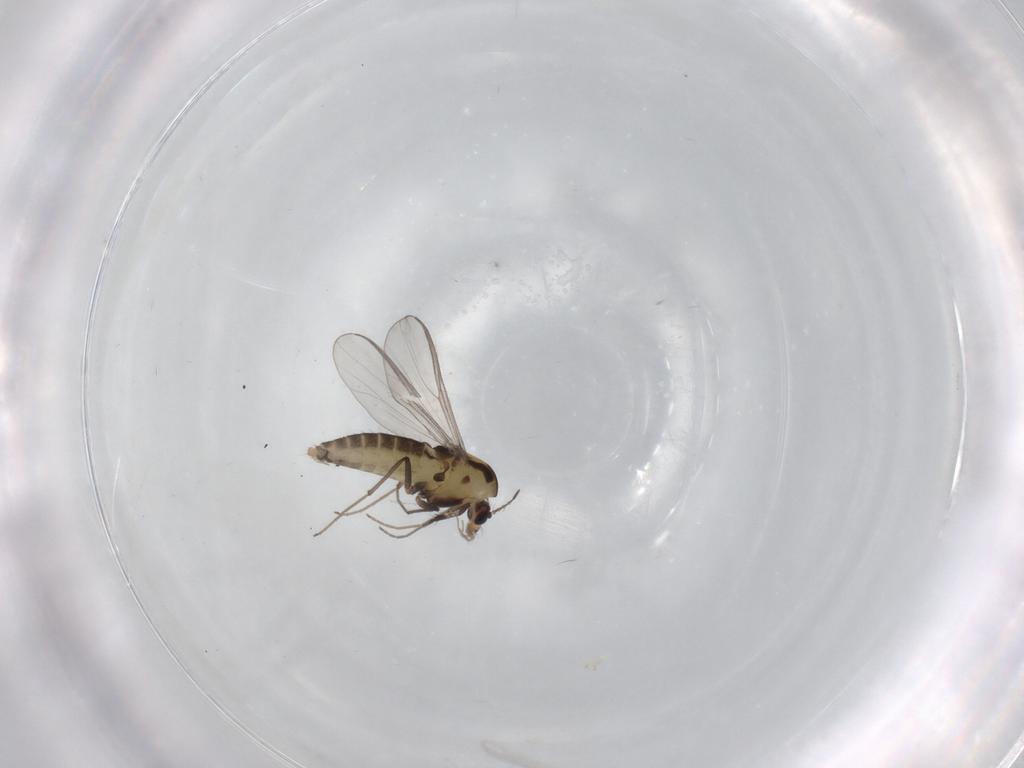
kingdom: Animalia
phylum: Arthropoda
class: Insecta
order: Diptera
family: Chironomidae
